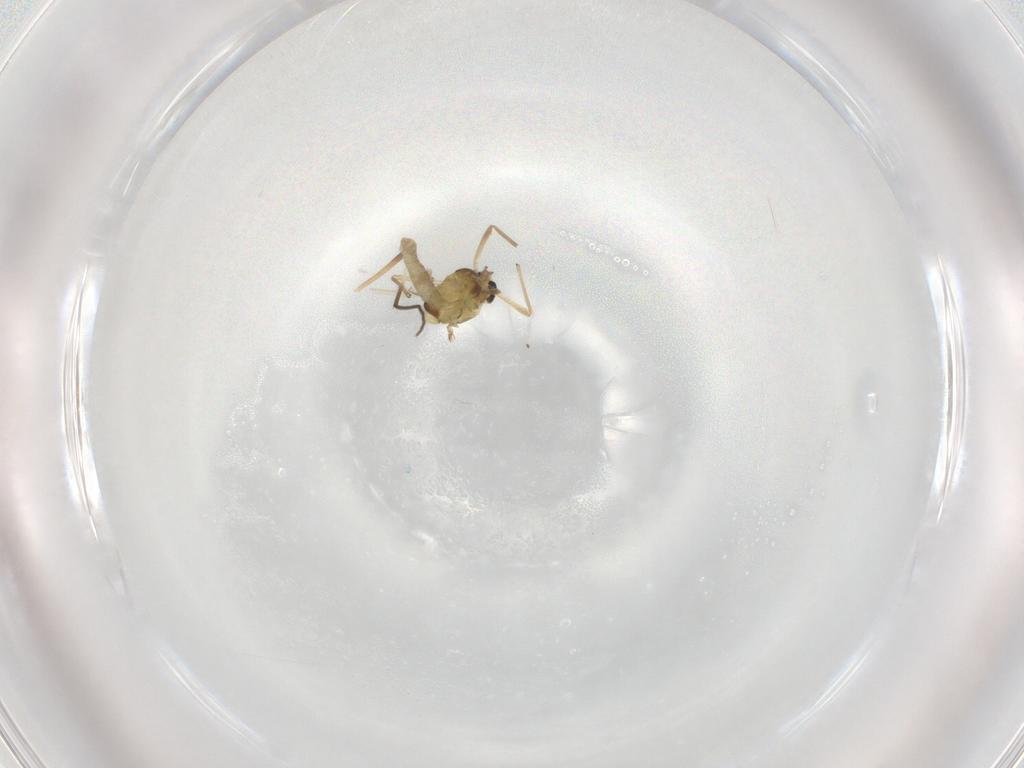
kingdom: Animalia
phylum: Arthropoda
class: Insecta
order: Diptera
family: Chironomidae
